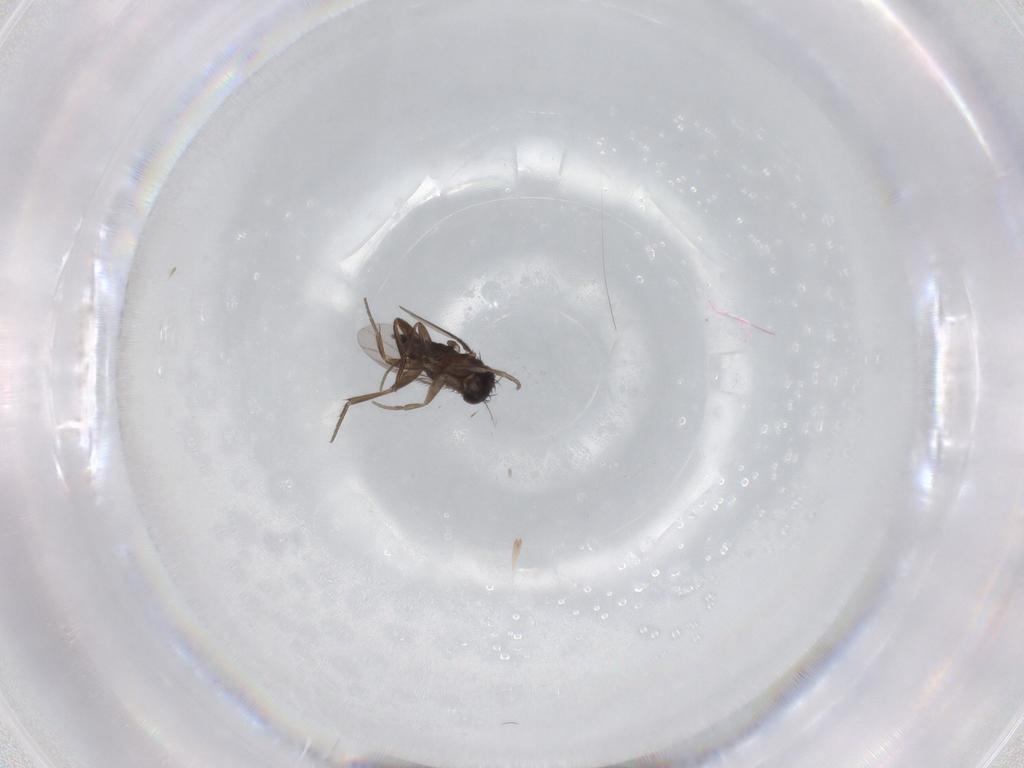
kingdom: Animalia
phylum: Arthropoda
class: Insecta
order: Diptera
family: Phoridae
